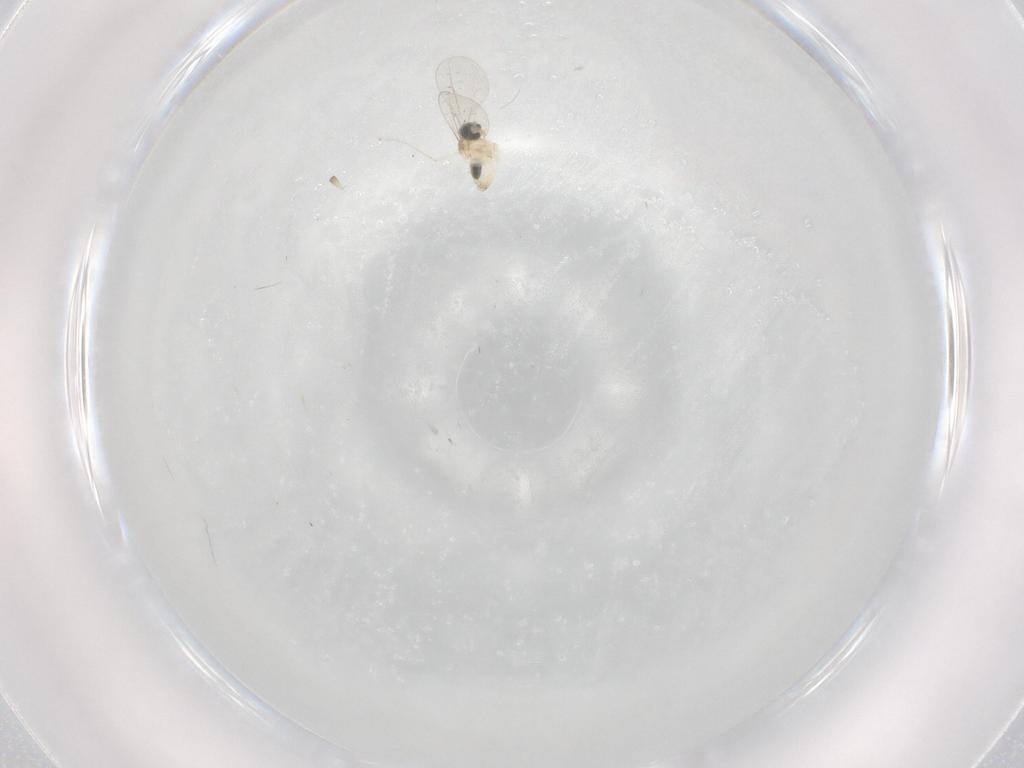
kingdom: Animalia
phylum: Arthropoda
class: Insecta
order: Diptera
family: Cecidomyiidae
